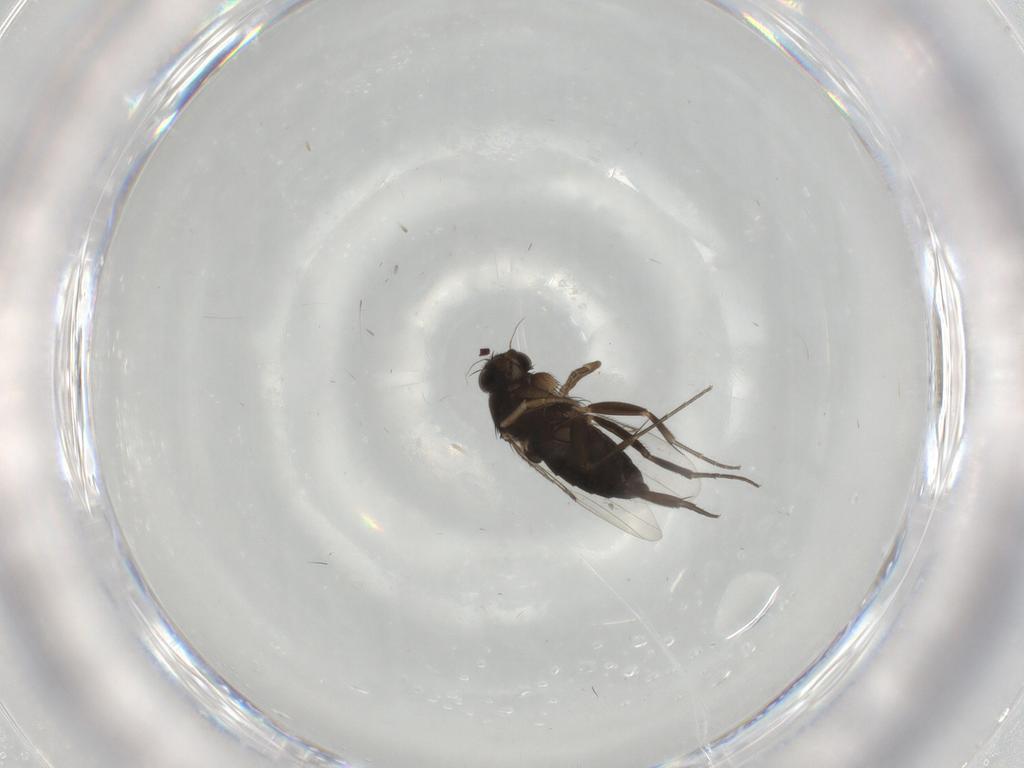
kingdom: Animalia
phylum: Arthropoda
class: Insecta
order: Diptera
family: Phoridae
